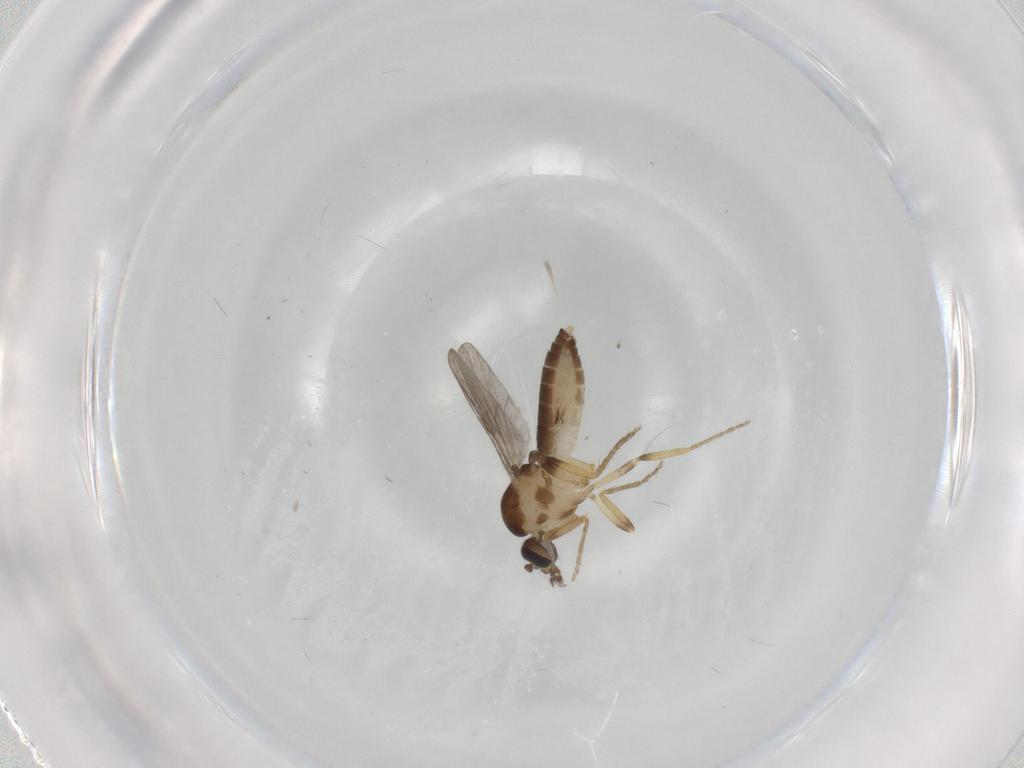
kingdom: Animalia
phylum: Arthropoda
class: Insecta
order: Diptera
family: Ceratopogonidae
